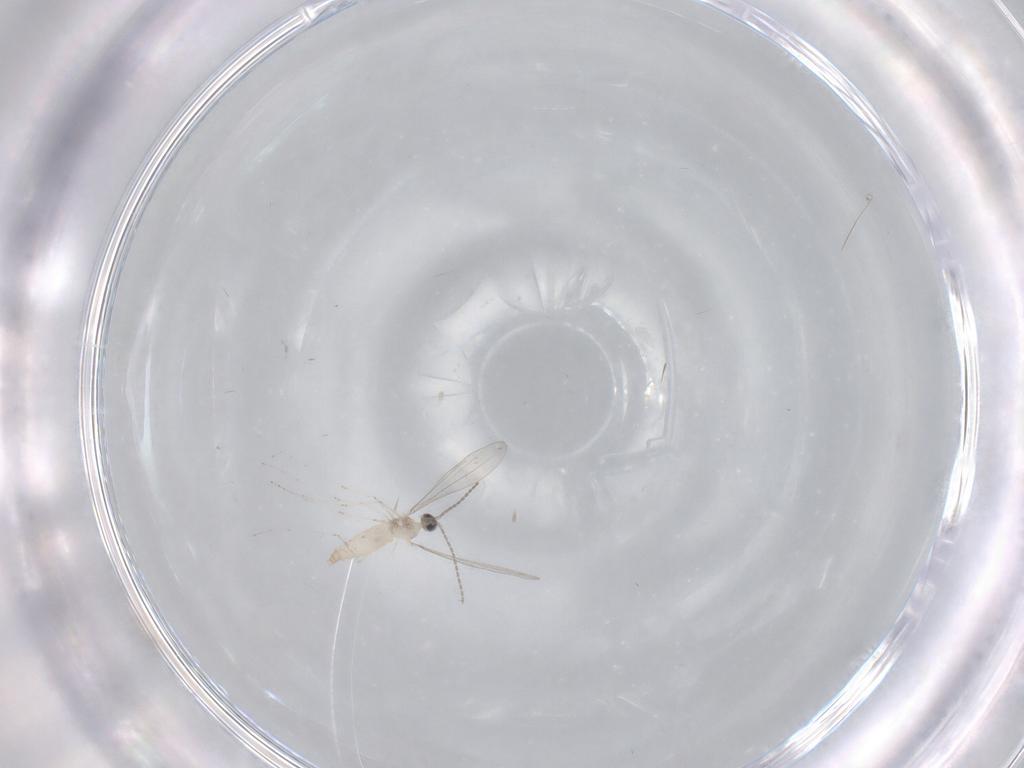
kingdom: Animalia
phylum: Arthropoda
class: Insecta
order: Diptera
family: Cecidomyiidae
